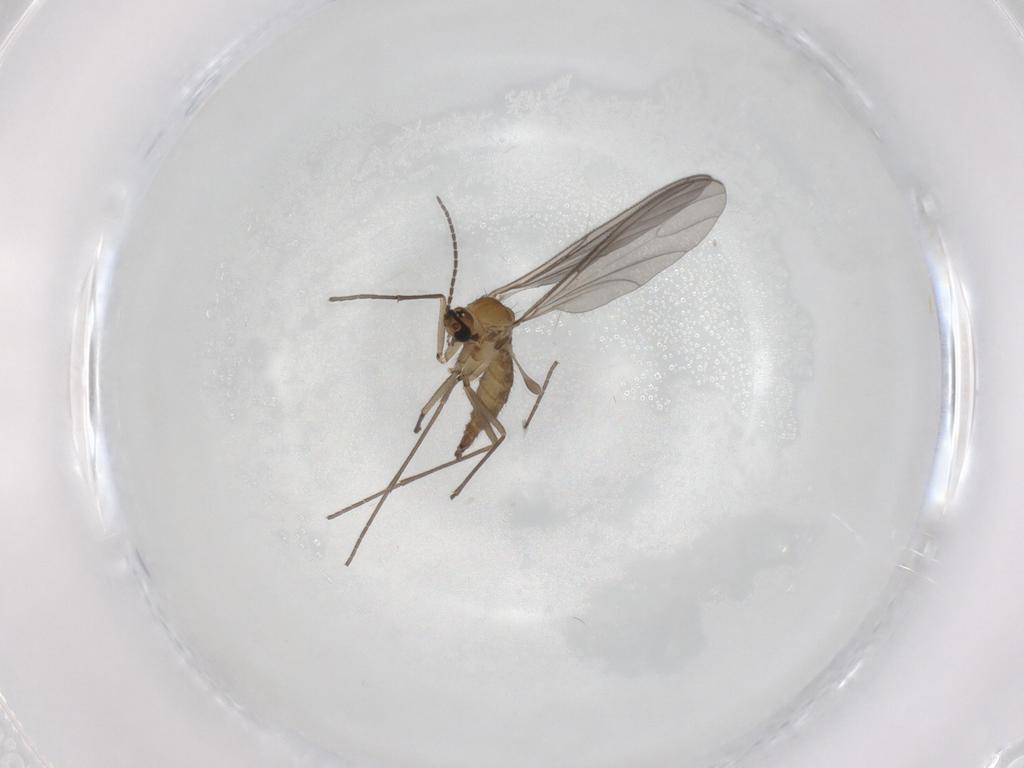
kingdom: Animalia
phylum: Arthropoda
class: Insecta
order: Diptera
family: Sciaridae
